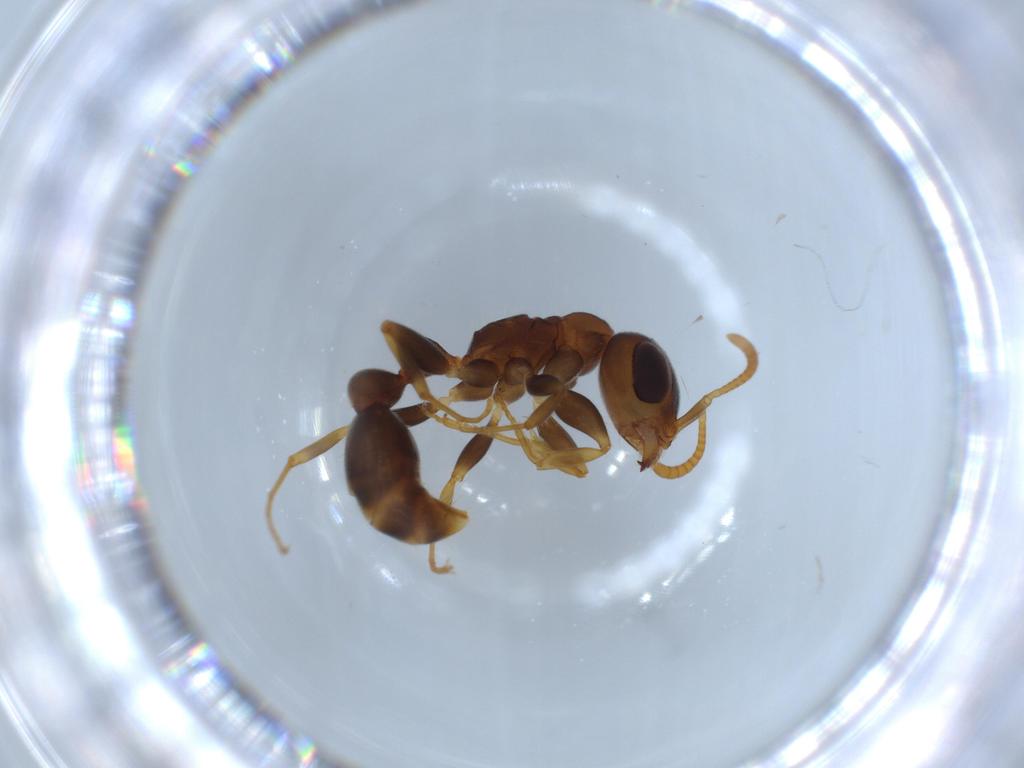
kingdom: Animalia
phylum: Arthropoda
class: Insecta
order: Hymenoptera
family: Formicidae
